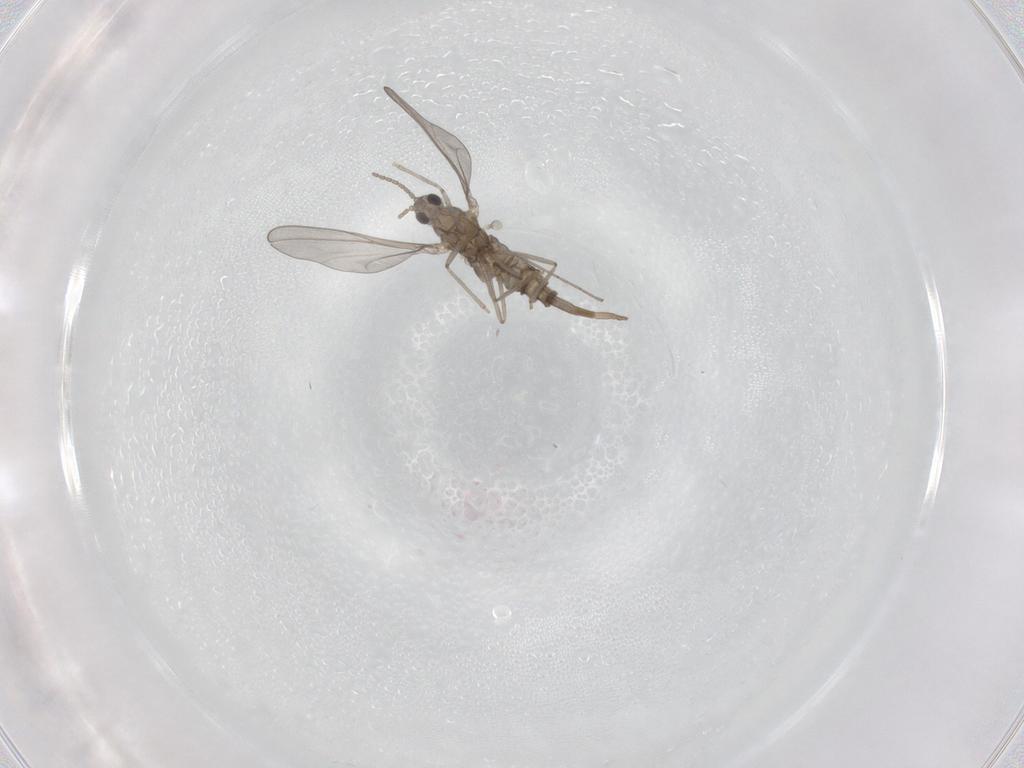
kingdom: Animalia
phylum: Arthropoda
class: Insecta
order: Diptera
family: Cecidomyiidae
